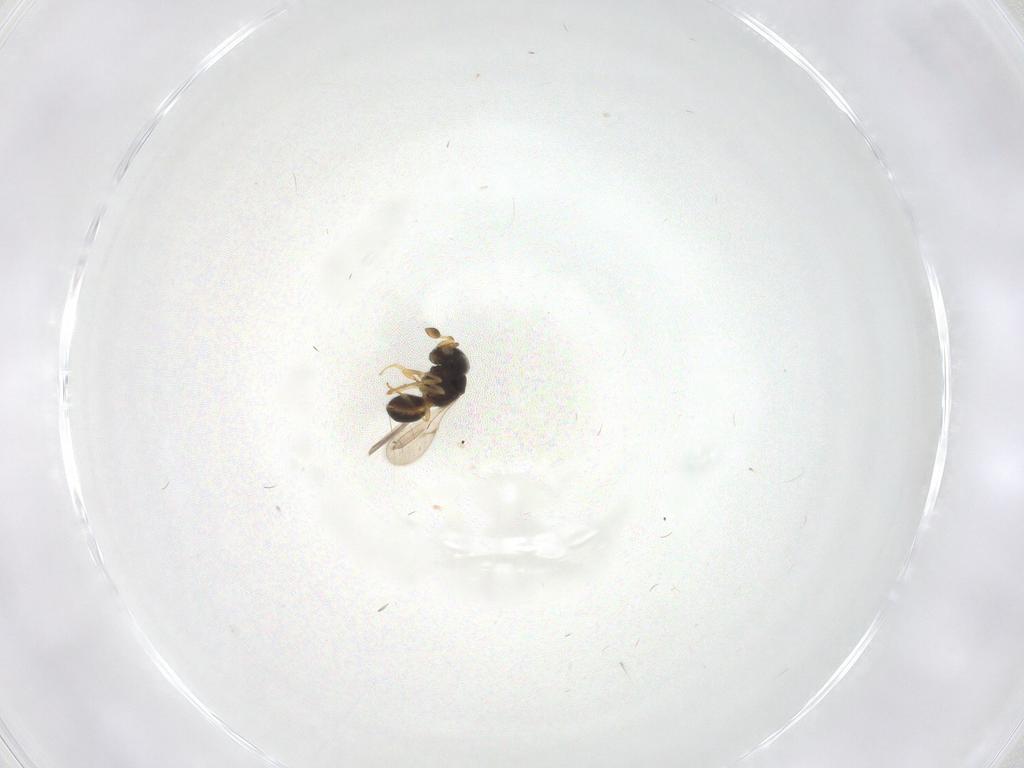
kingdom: Animalia
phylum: Arthropoda
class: Insecta
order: Hymenoptera
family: Scelionidae
